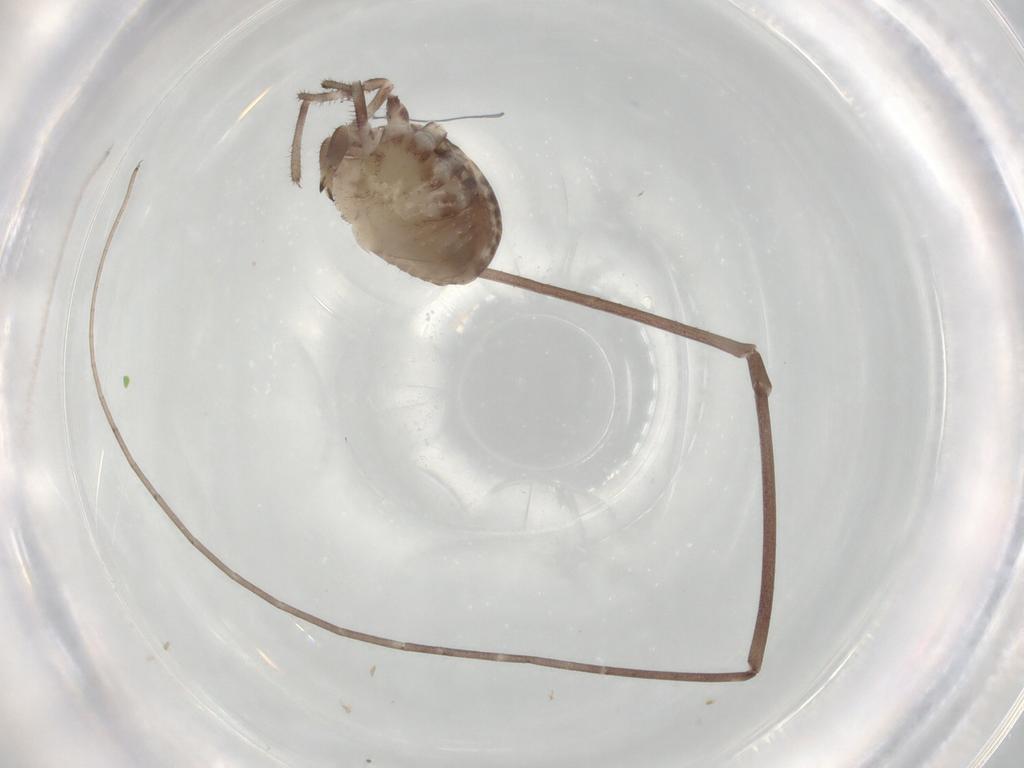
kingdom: Animalia
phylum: Arthropoda
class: Arachnida
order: Opiliones
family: Sclerosomatidae
